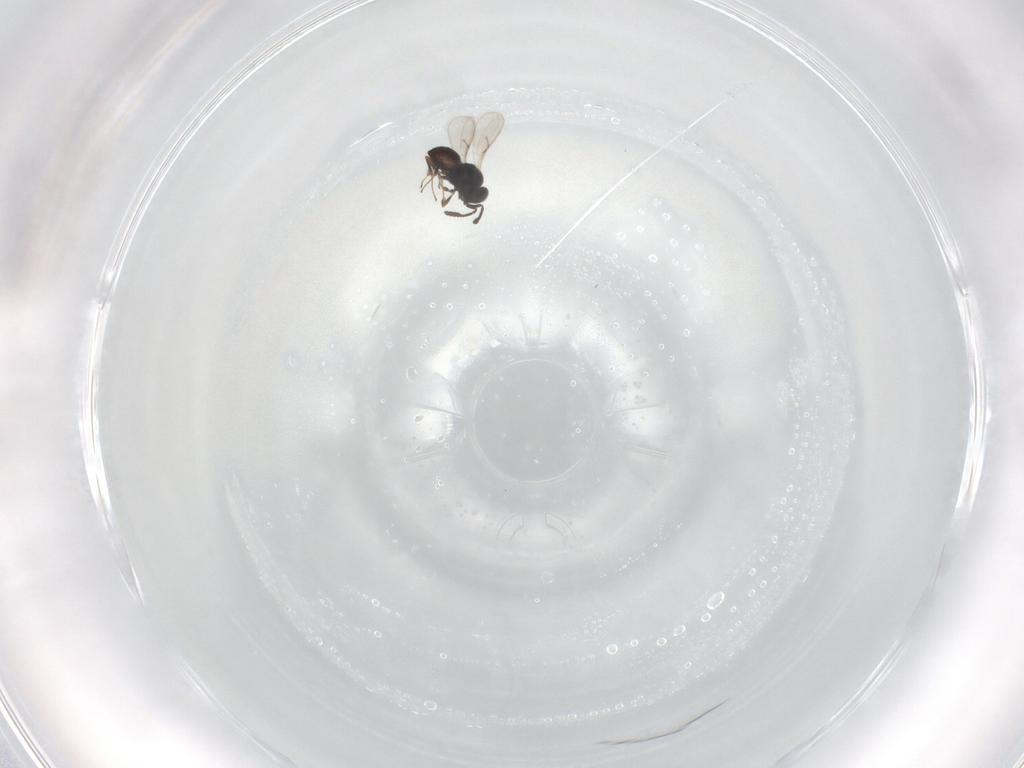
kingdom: Animalia
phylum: Arthropoda
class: Insecta
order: Hymenoptera
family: Scelionidae
